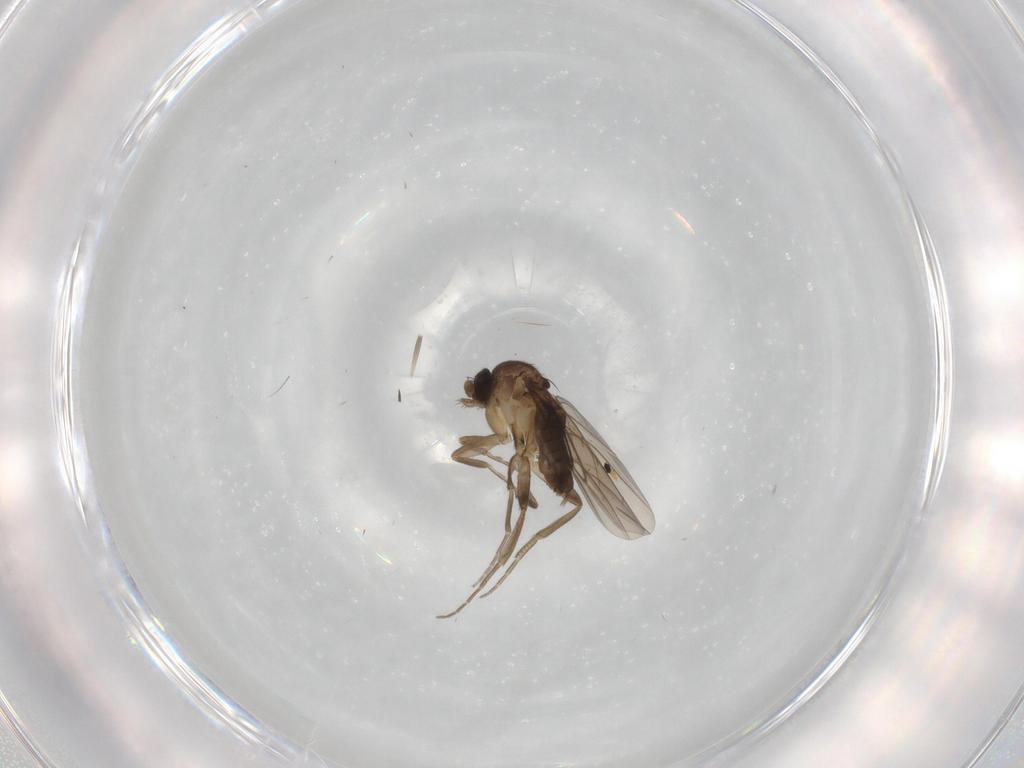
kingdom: Animalia
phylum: Arthropoda
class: Insecta
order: Diptera
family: Phoridae
